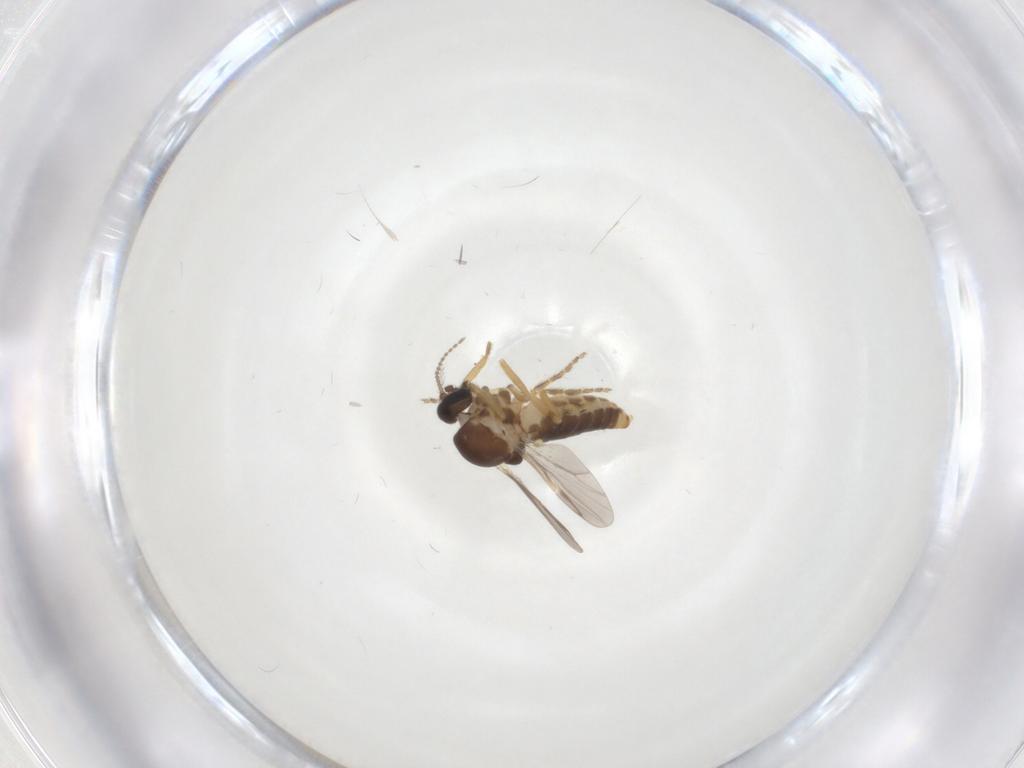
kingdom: Animalia
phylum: Arthropoda
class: Insecta
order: Diptera
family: Ceratopogonidae
